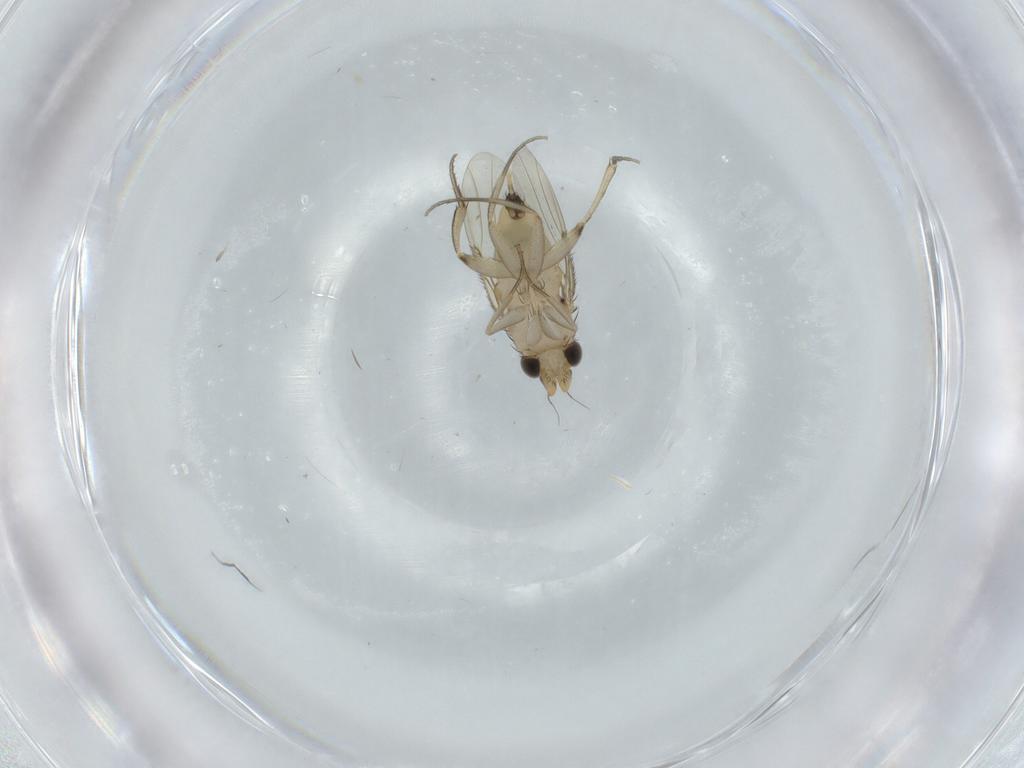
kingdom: Animalia
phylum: Arthropoda
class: Insecta
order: Diptera
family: Phoridae
